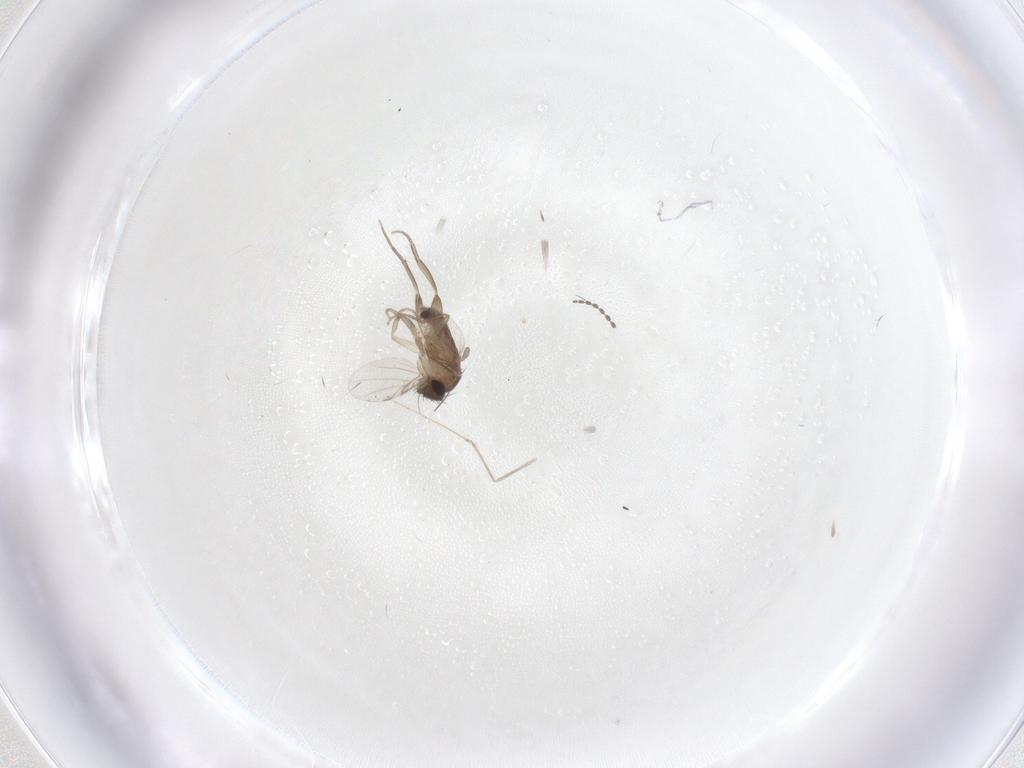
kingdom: Animalia
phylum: Arthropoda
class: Insecta
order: Diptera
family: Phoridae
